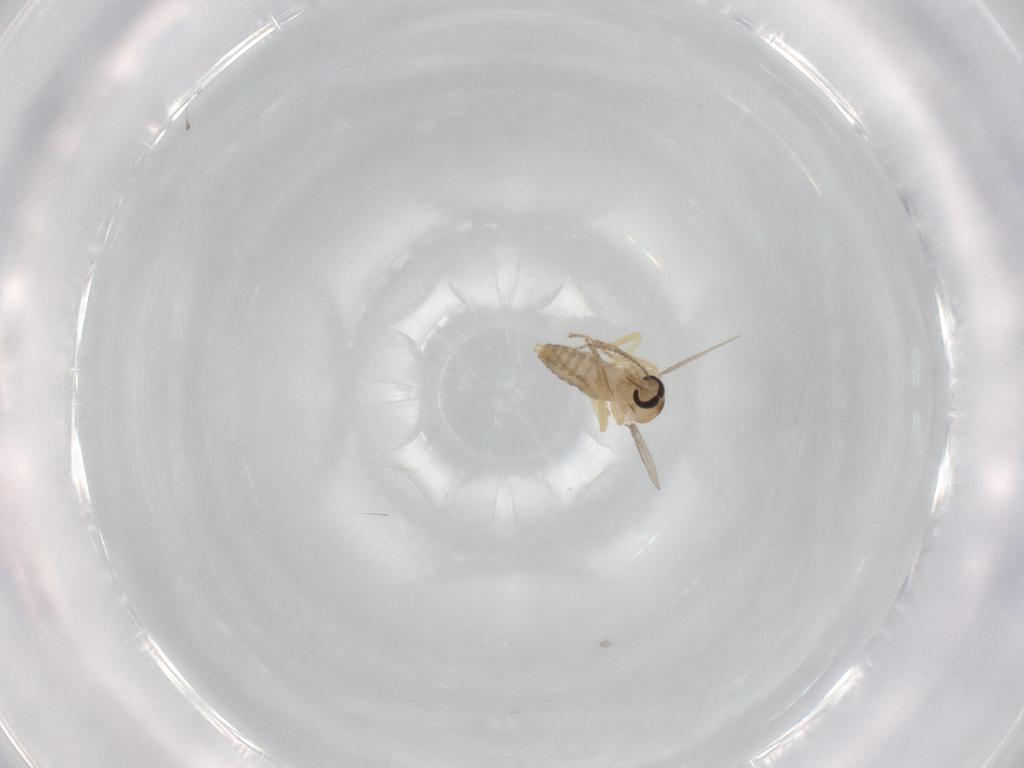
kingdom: Animalia
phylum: Arthropoda
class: Insecta
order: Diptera
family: Ceratopogonidae
